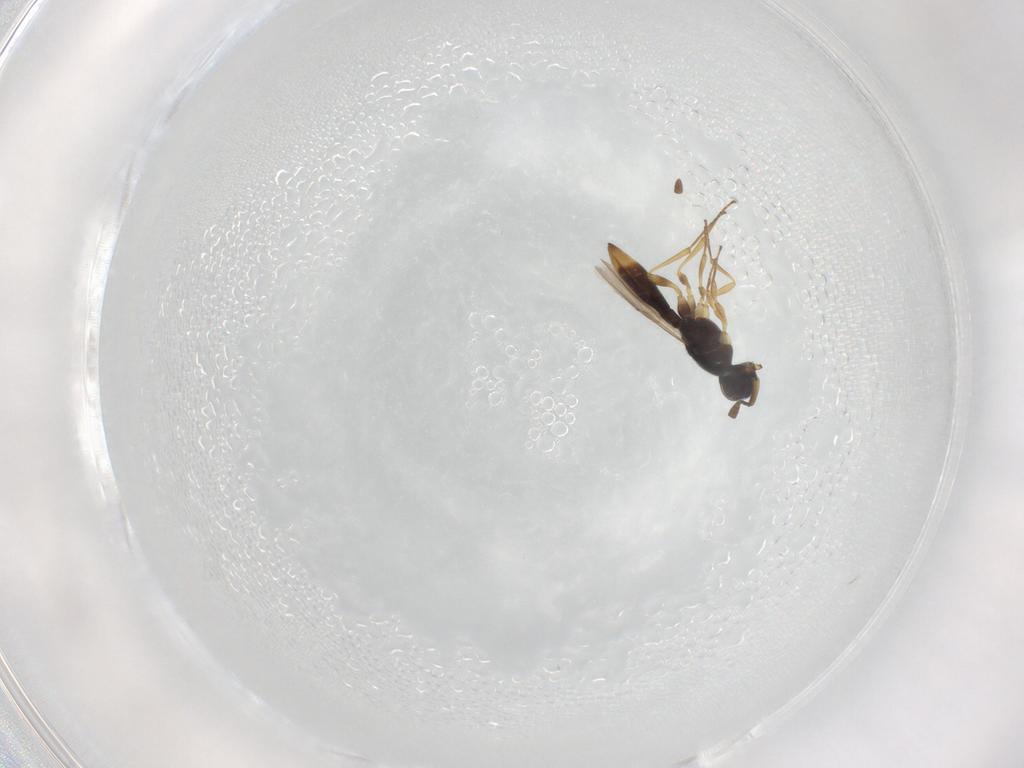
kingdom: Animalia
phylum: Arthropoda
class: Insecta
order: Hymenoptera
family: Scelionidae
